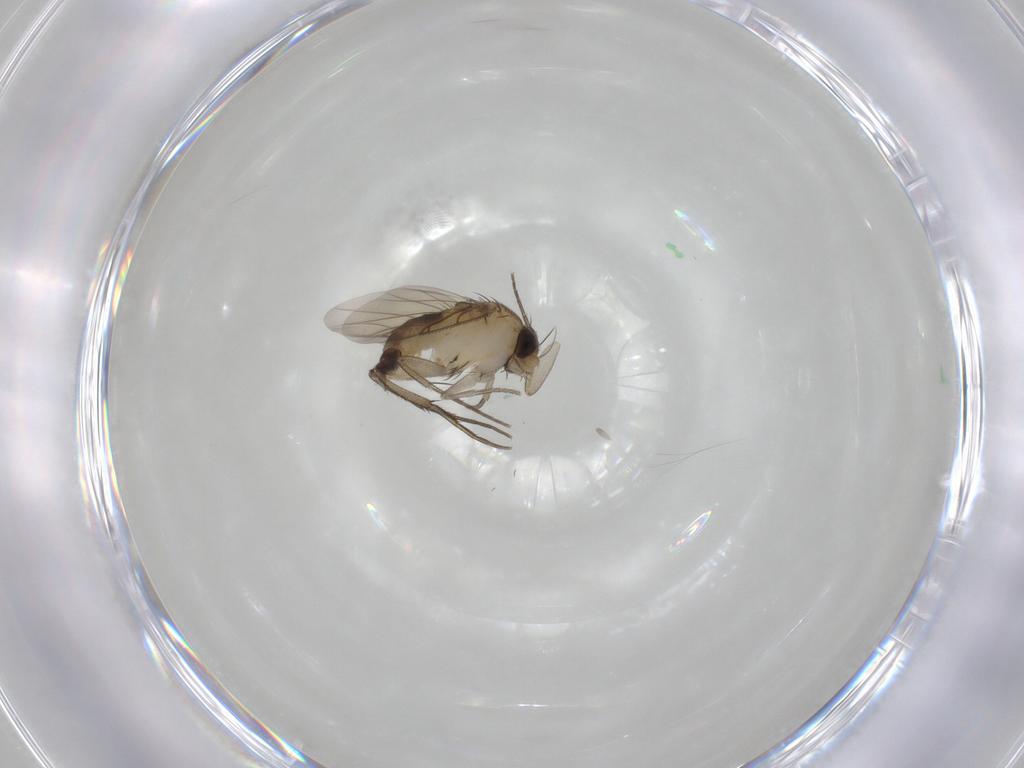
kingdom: Animalia
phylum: Arthropoda
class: Insecta
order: Diptera
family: Phoridae
